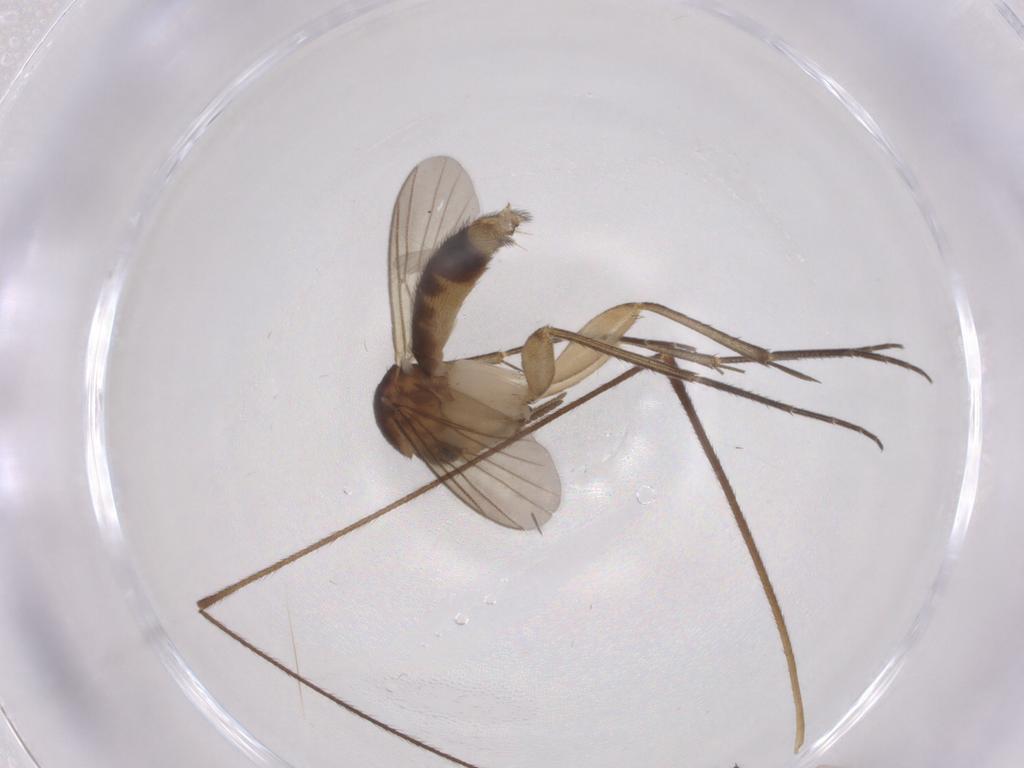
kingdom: Animalia
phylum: Arthropoda
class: Insecta
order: Diptera
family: Limoniidae
